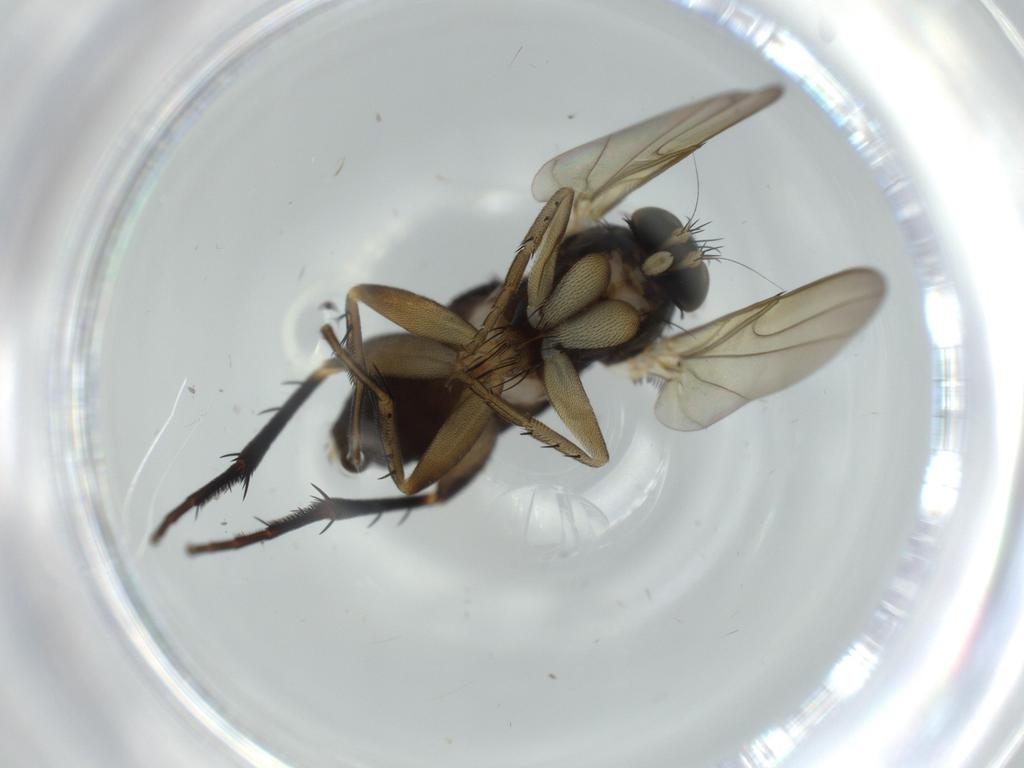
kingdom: Animalia
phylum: Arthropoda
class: Insecta
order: Diptera
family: Phoridae
